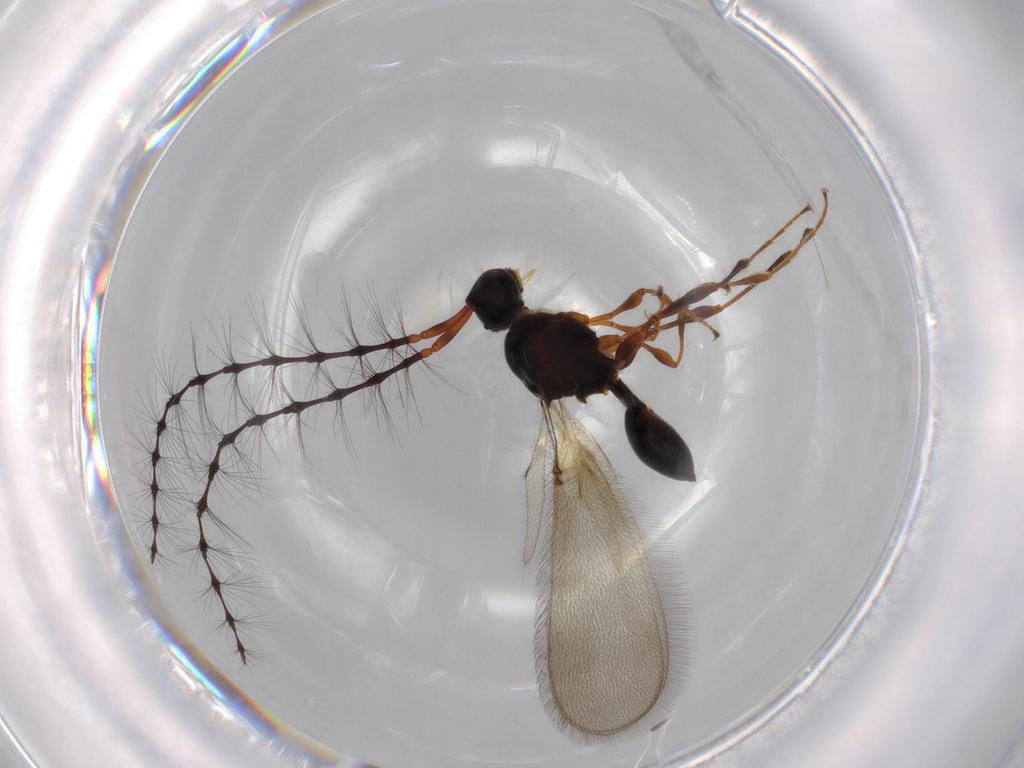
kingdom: Animalia
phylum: Arthropoda
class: Insecta
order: Hymenoptera
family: Diapriidae
